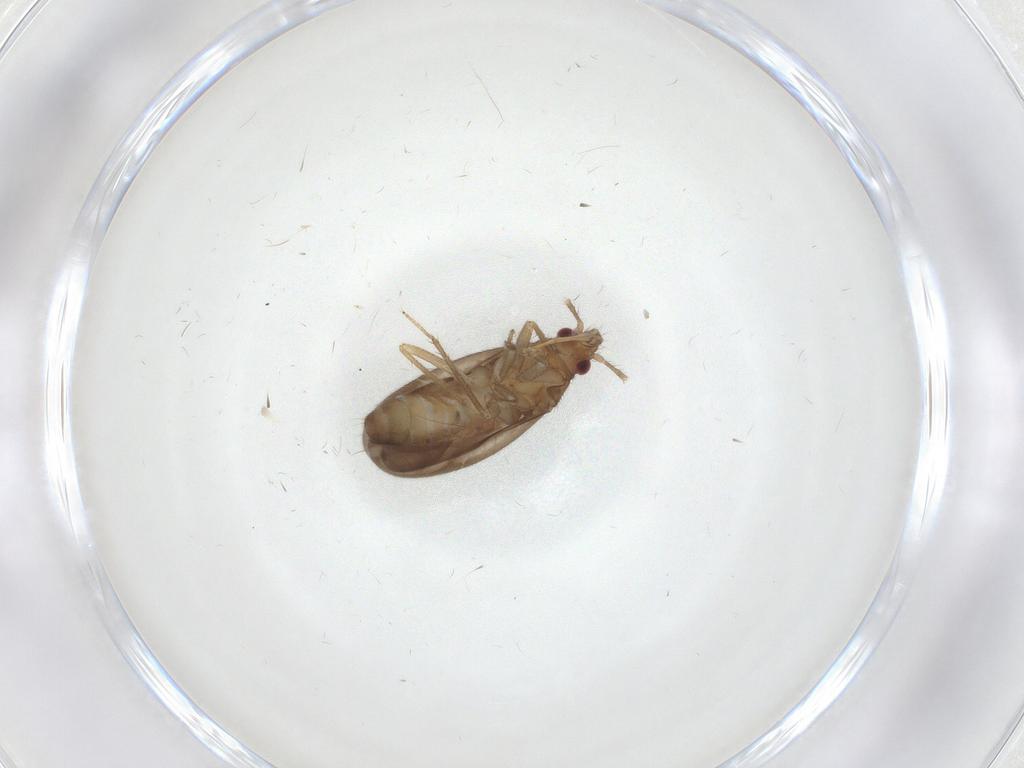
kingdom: Animalia
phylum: Arthropoda
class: Insecta
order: Hemiptera
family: Ceratocombidae
